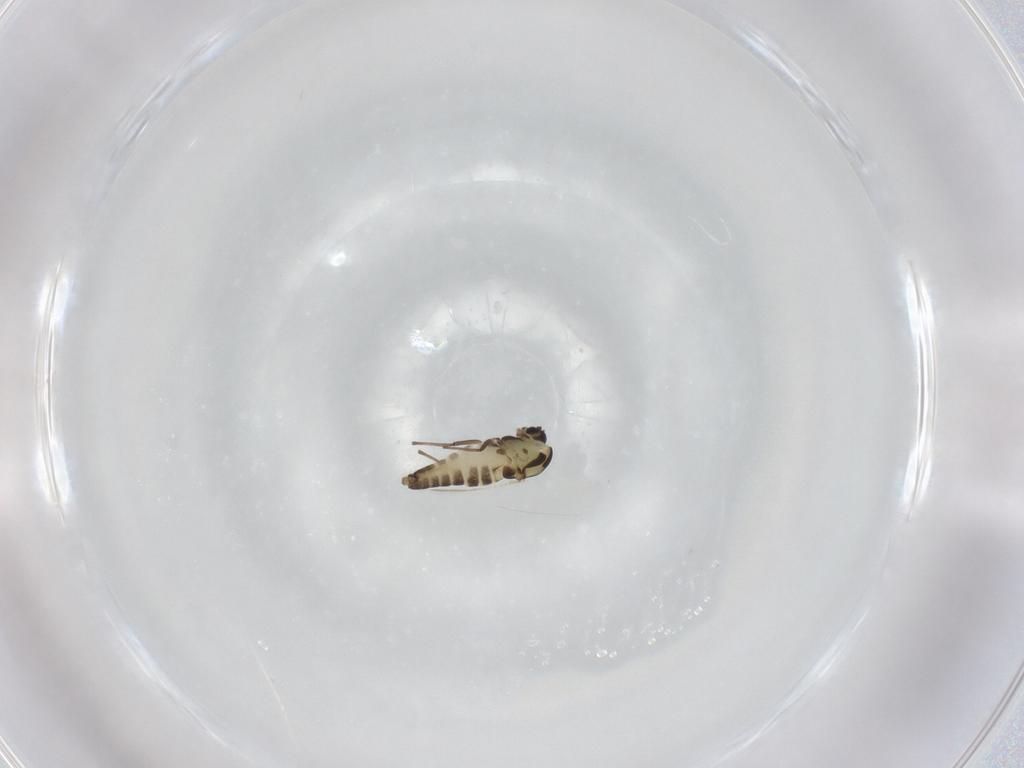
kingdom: Animalia
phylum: Arthropoda
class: Insecta
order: Diptera
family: Chironomidae
